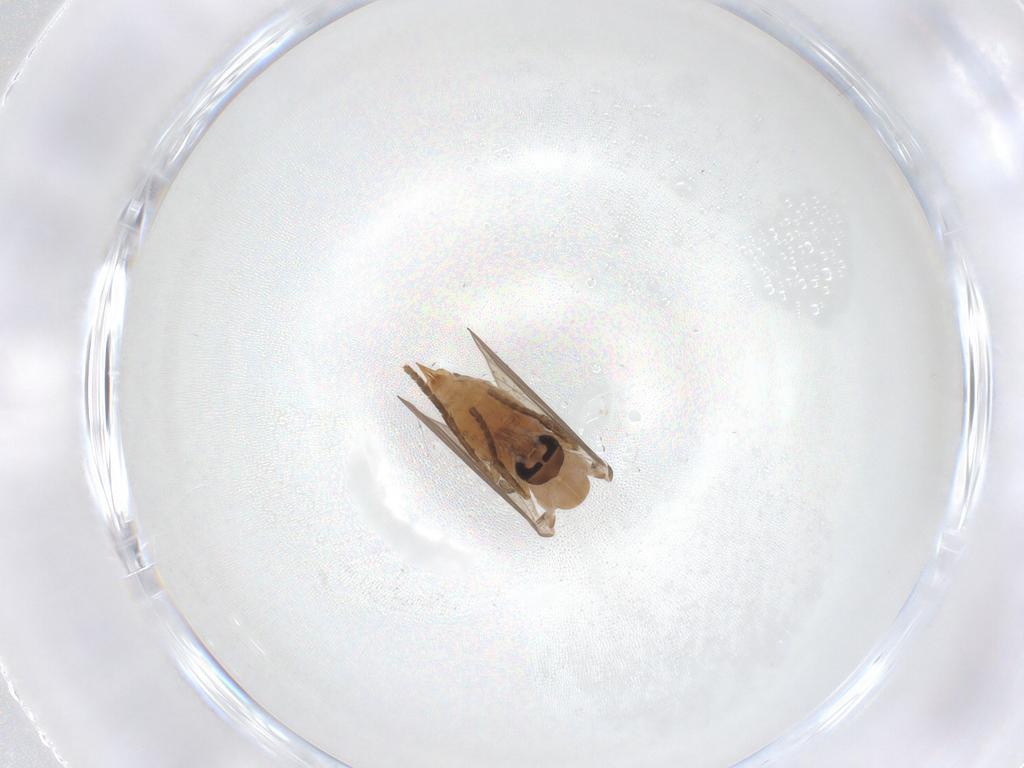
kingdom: Animalia
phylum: Arthropoda
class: Insecta
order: Diptera
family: Psychodidae
